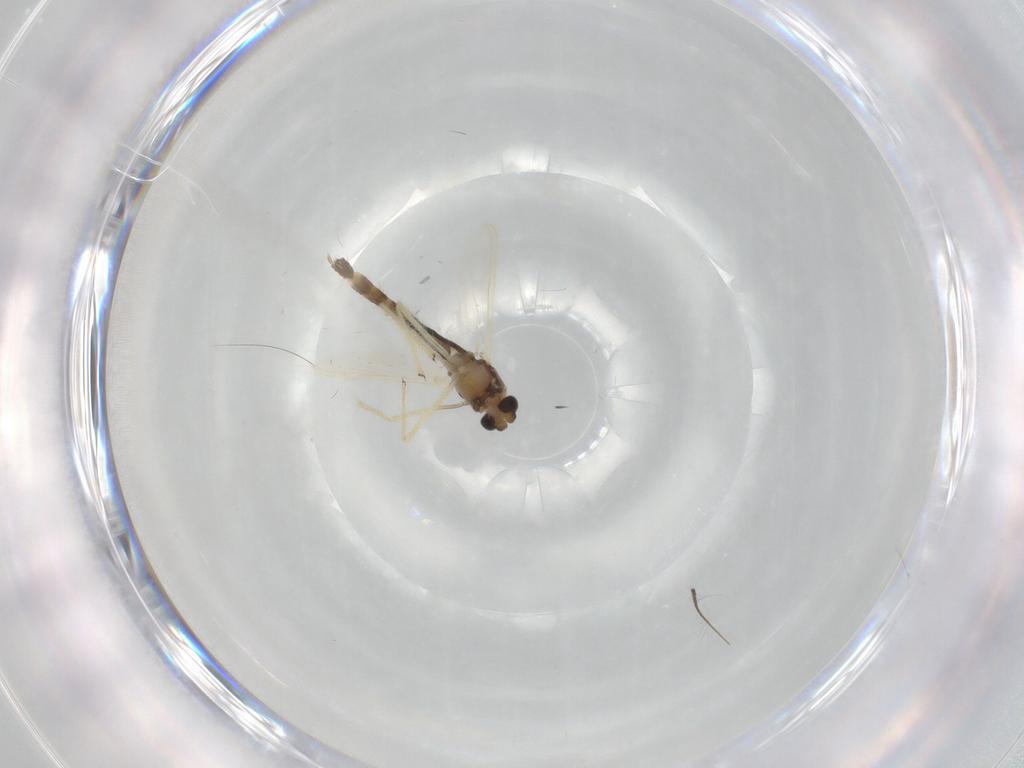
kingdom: Animalia
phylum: Arthropoda
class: Insecta
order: Diptera
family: Chironomidae
